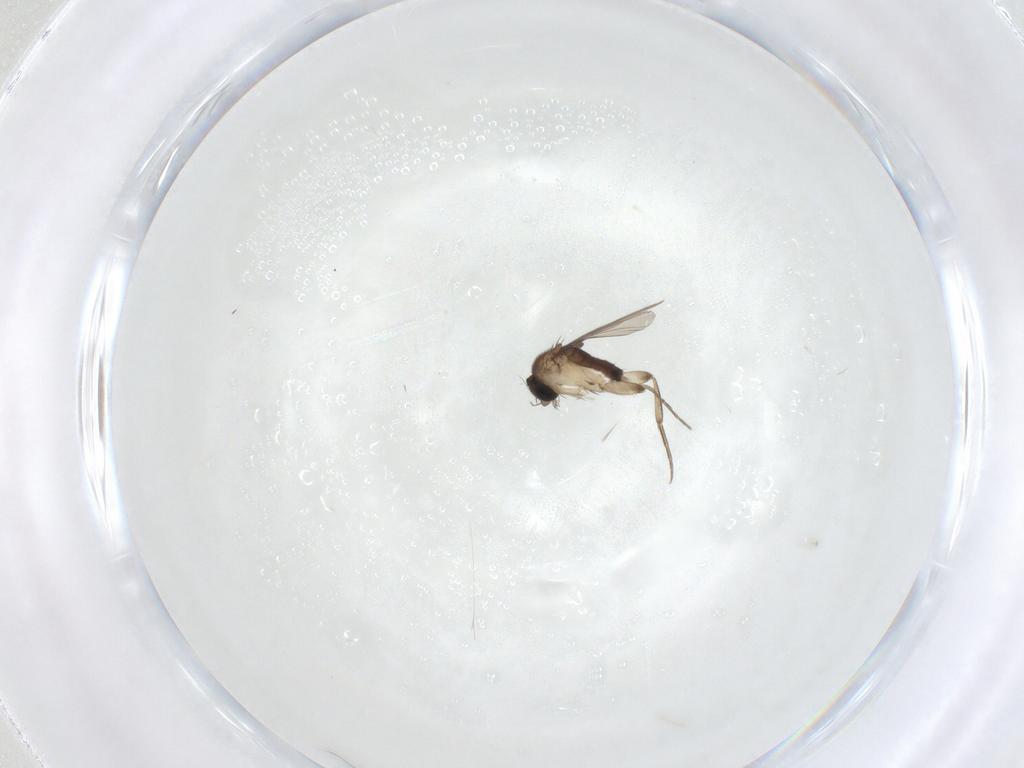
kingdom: Animalia
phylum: Arthropoda
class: Insecta
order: Diptera
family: Phoridae
